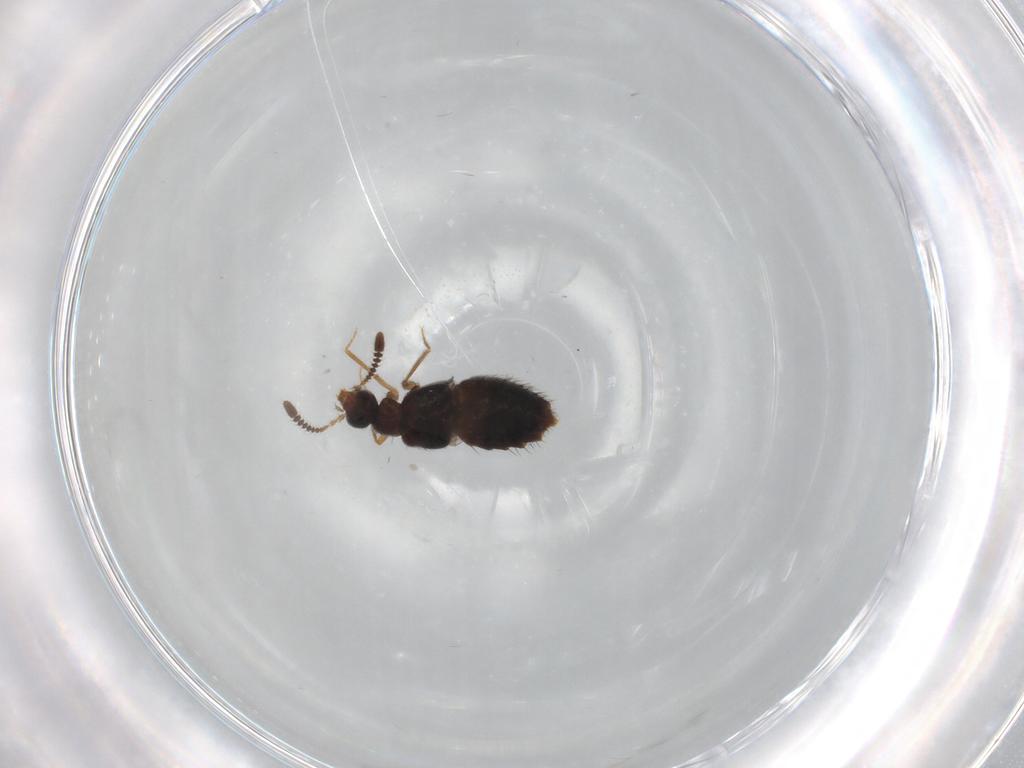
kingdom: Animalia
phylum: Arthropoda
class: Insecta
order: Coleoptera
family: Staphylinidae
